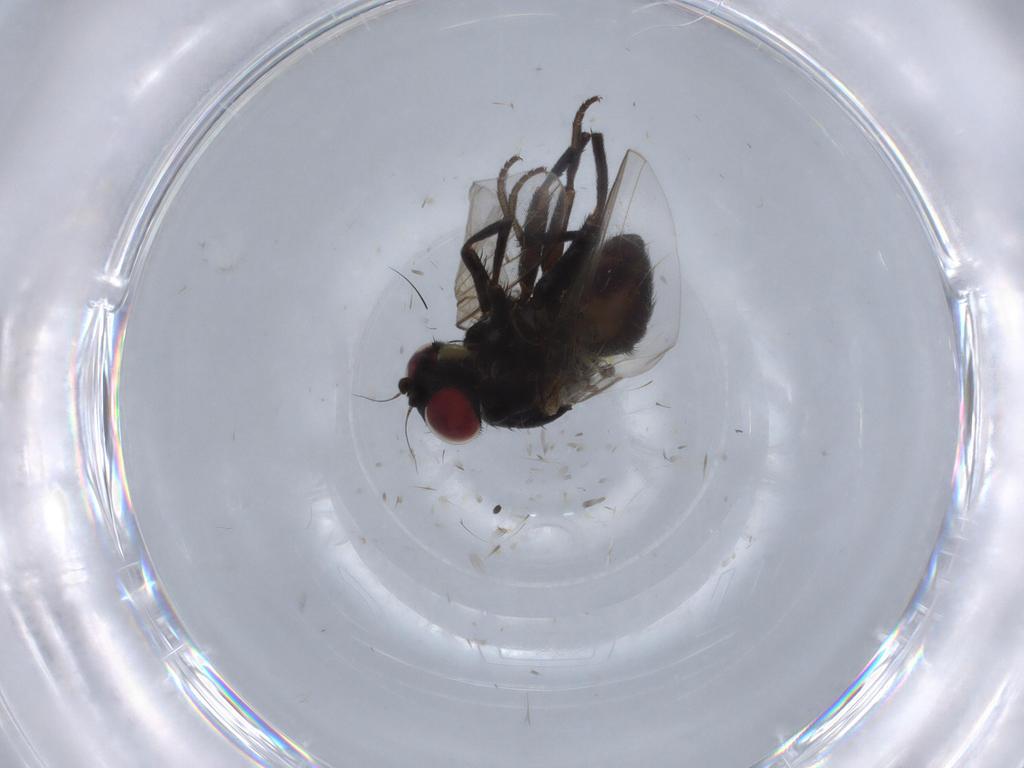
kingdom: Animalia
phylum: Arthropoda
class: Insecta
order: Diptera
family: Agromyzidae
